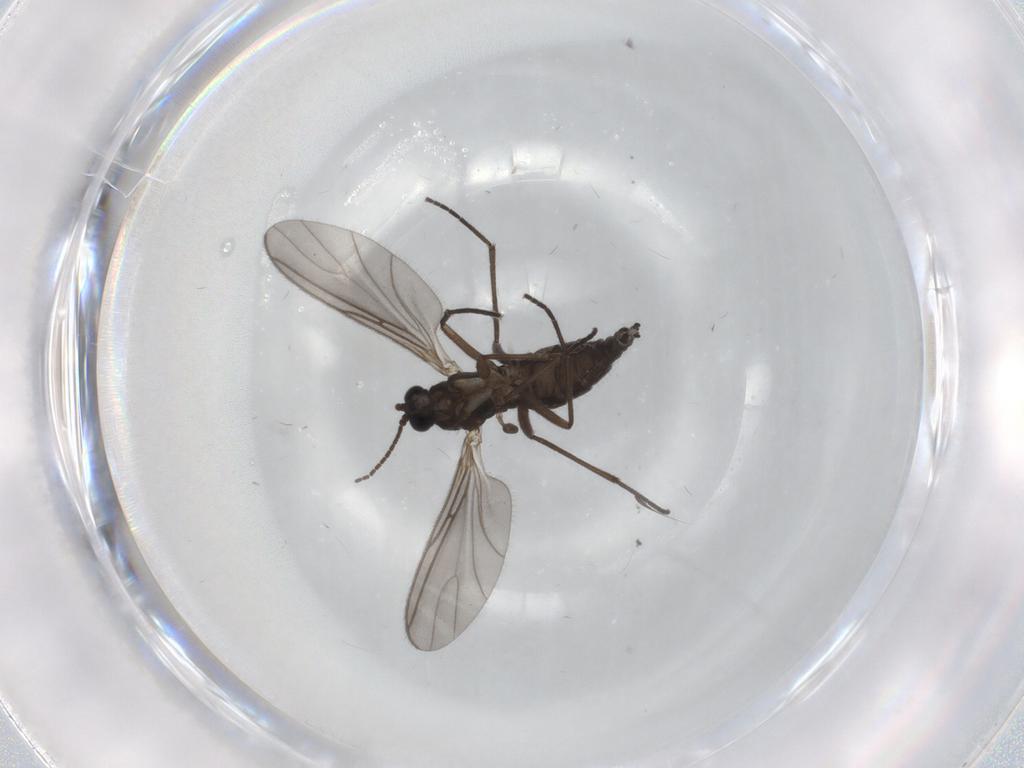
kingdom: Animalia
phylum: Arthropoda
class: Insecta
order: Diptera
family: Sciaridae
